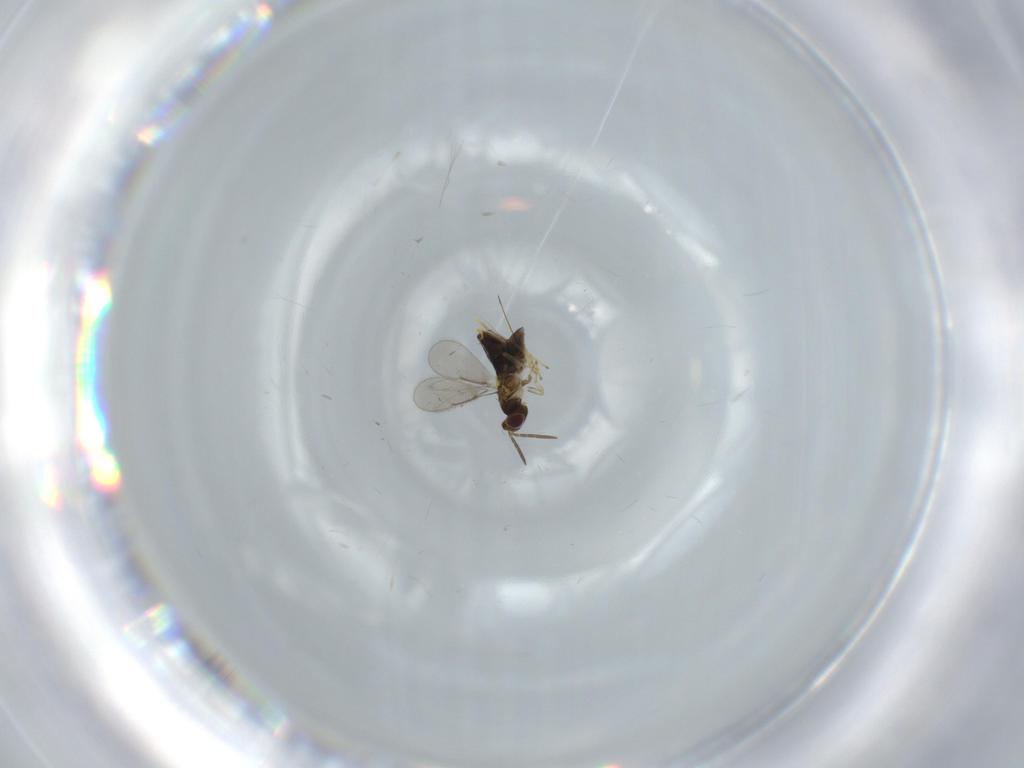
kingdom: Animalia
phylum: Arthropoda
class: Insecta
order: Hymenoptera
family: Aphelinidae
